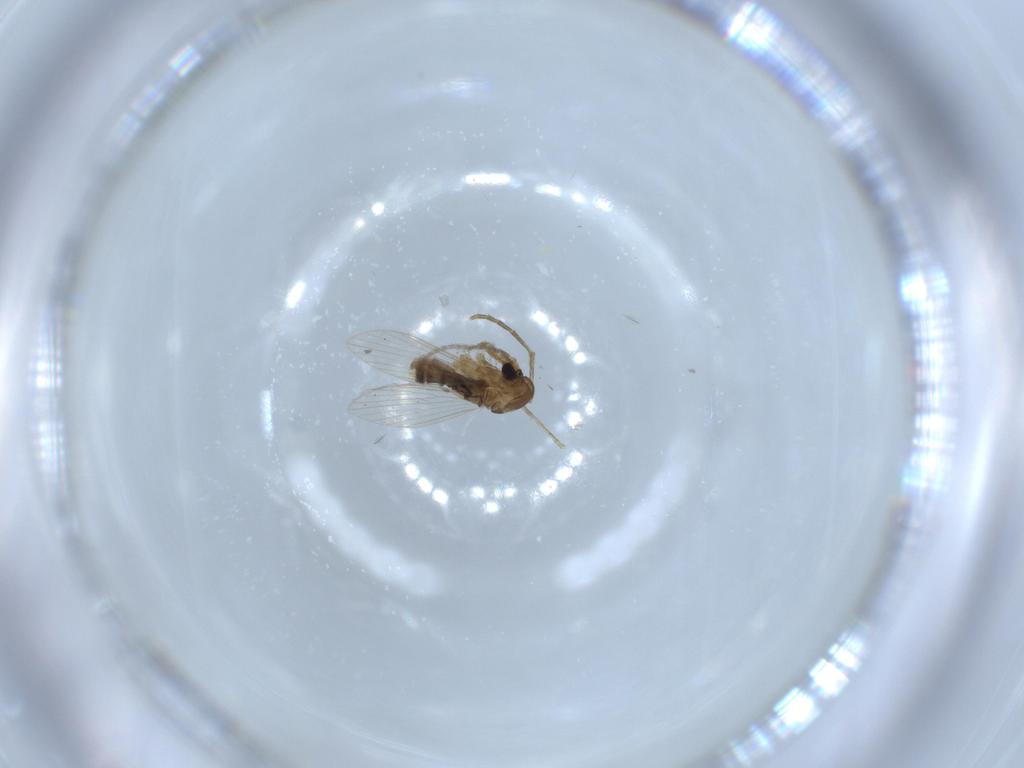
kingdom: Animalia
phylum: Arthropoda
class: Insecta
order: Diptera
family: Psychodidae
